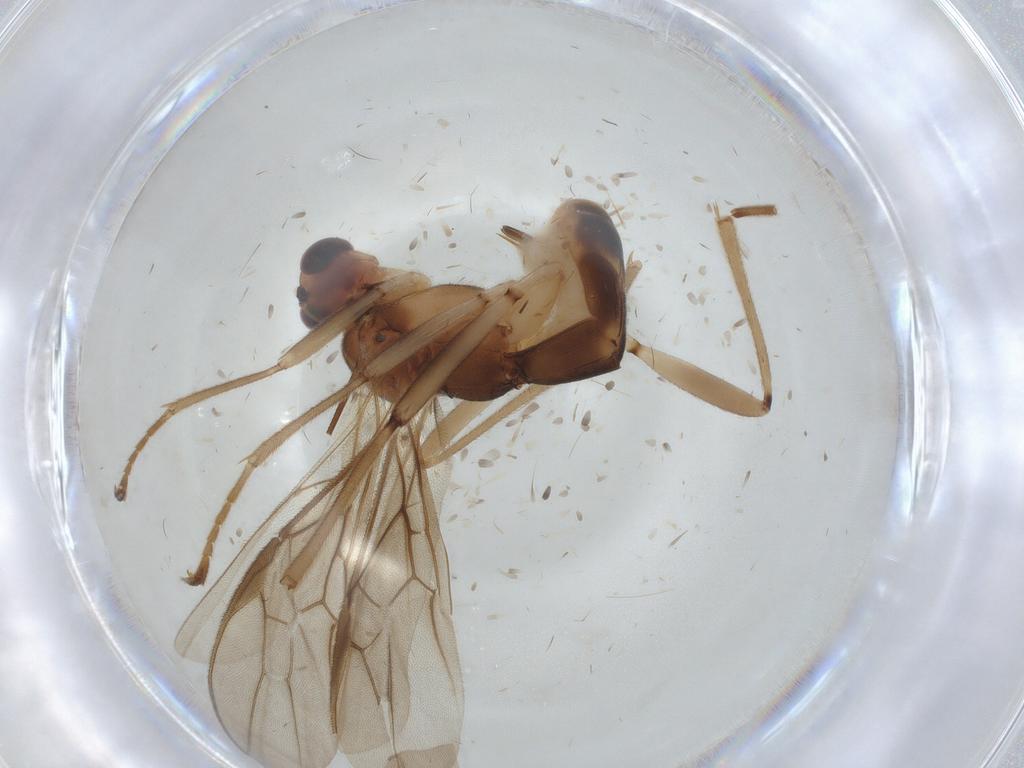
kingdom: Animalia
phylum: Arthropoda
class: Insecta
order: Hymenoptera
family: Braconidae
